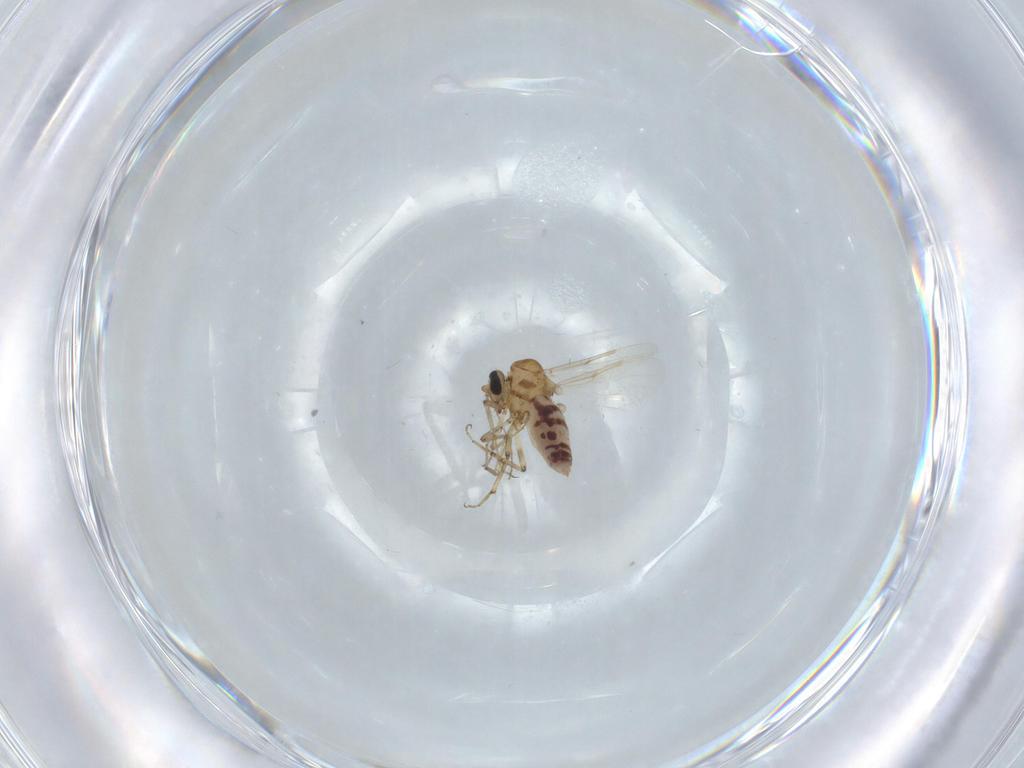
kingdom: Animalia
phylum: Arthropoda
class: Insecta
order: Diptera
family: Ceratopogonidae
